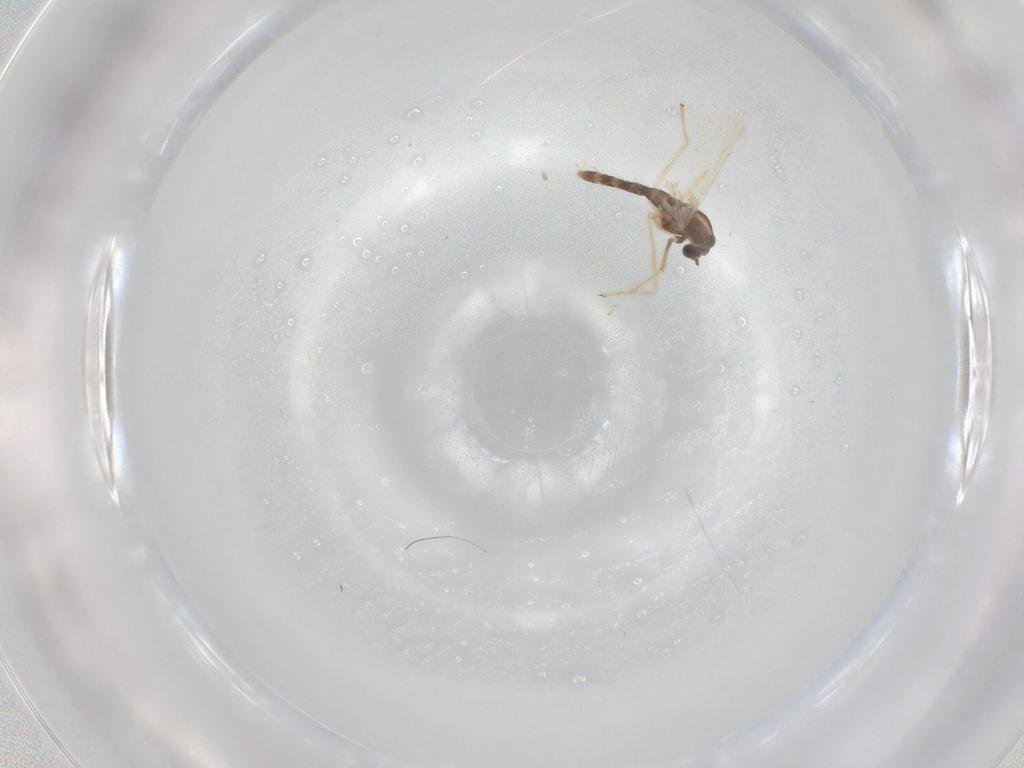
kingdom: Animalia
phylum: Arthropoda
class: Insecta
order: Diptera
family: Chironomidae
